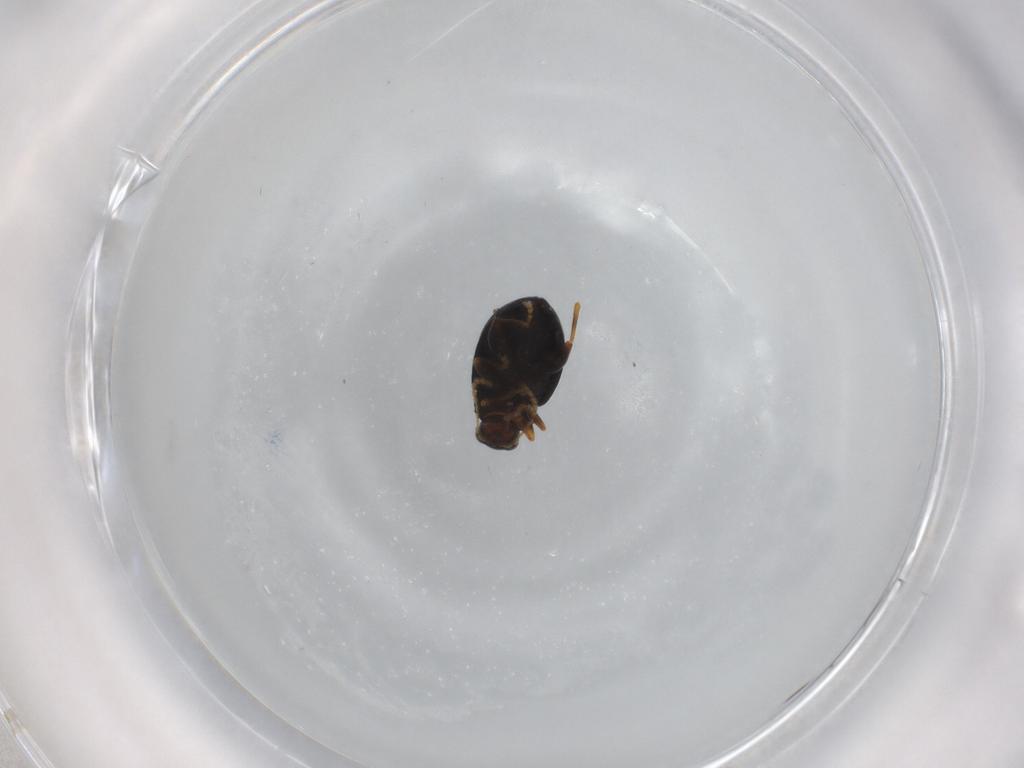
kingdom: Animalia
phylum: Arthropoda
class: Insecta
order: Coleoptera
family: Chrysomelidae
